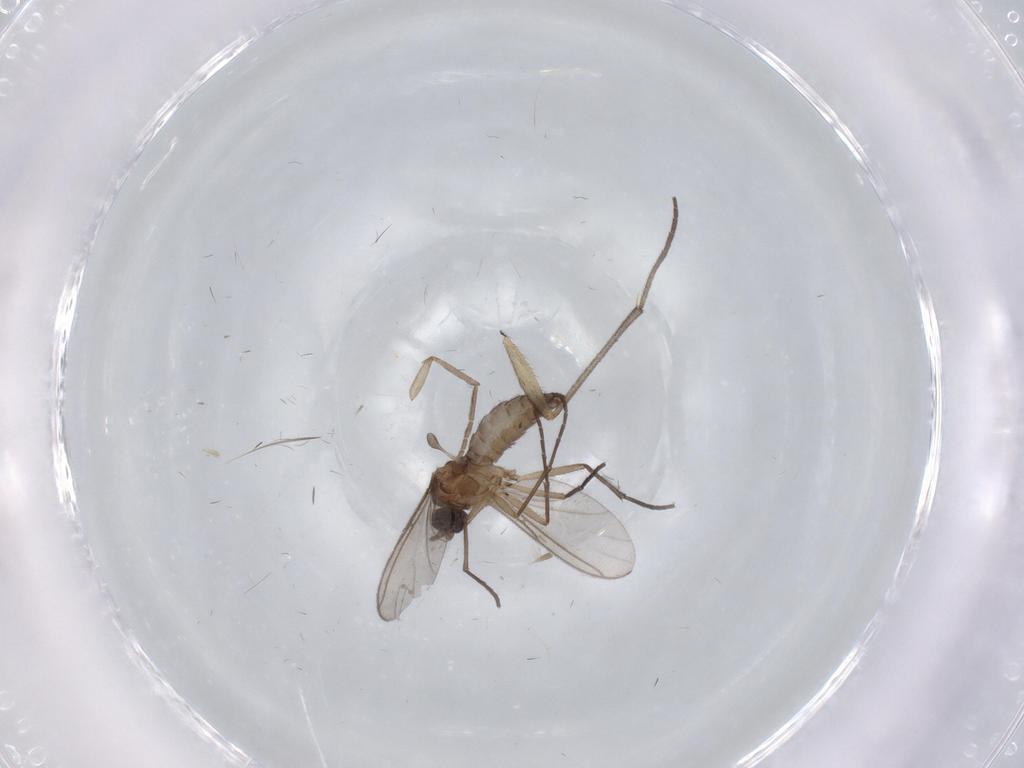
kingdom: Animalia
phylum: Arthropoda
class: Insecta
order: Diptera
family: Sciaridae
